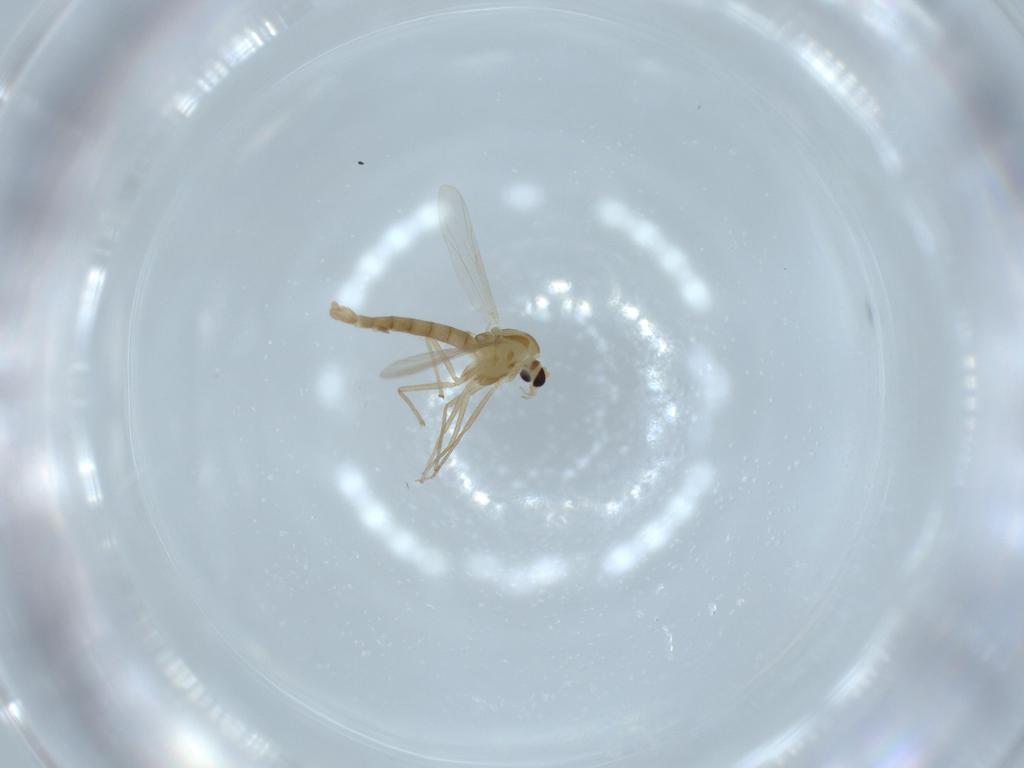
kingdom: Animalia
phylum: Arthropoda
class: Insecta
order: Diptera
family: Chironomidae
